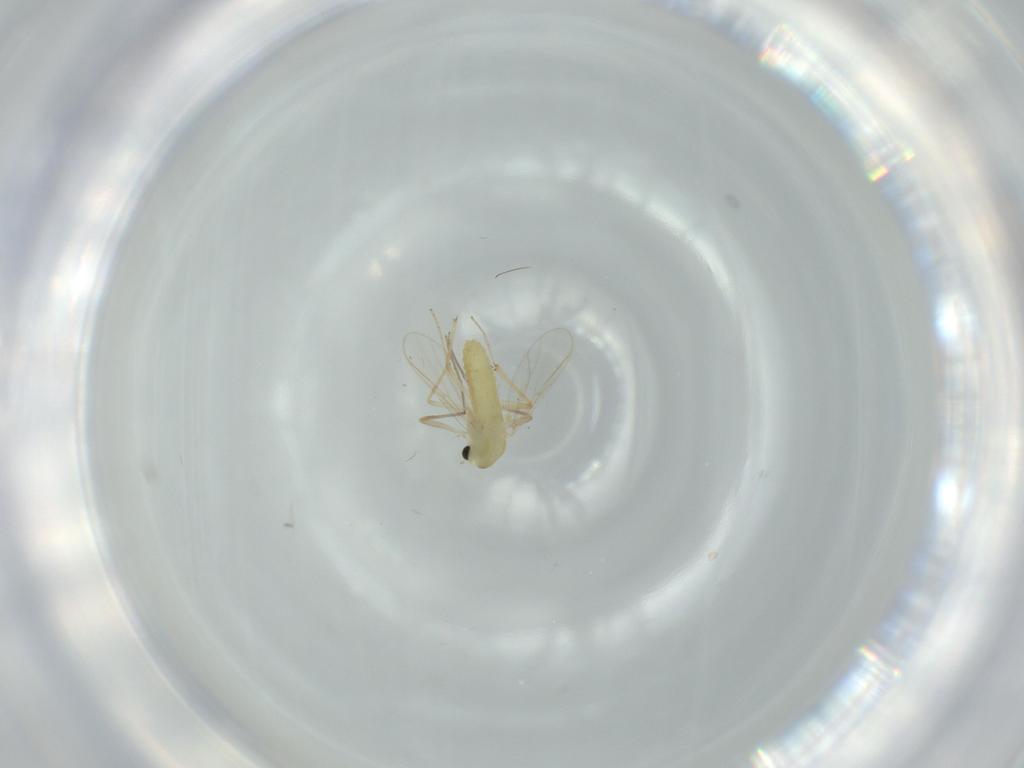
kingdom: Animalia
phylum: Arthropoda
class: Insecta
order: Diptera
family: Chironomidae
